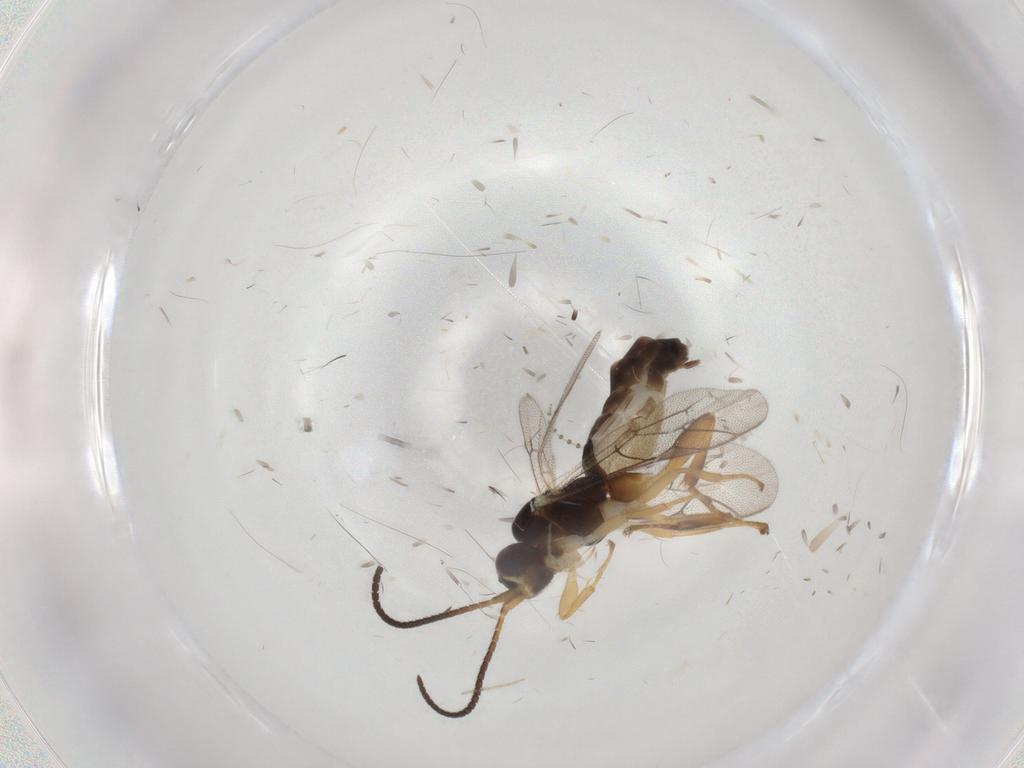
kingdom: Animalia
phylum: Arthropoda
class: Insecta
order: Hymenoptera
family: Ichneumonidae
